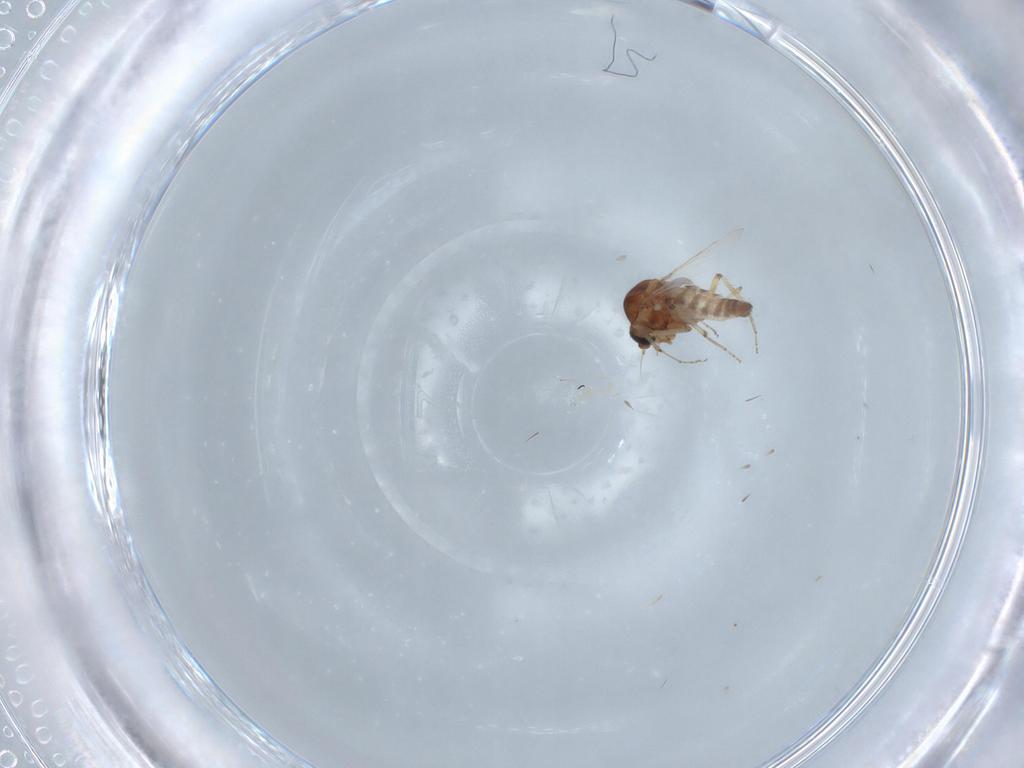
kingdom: Animalia
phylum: Arthropoda
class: Insecta
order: Diptera
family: Ceratopogonidae
